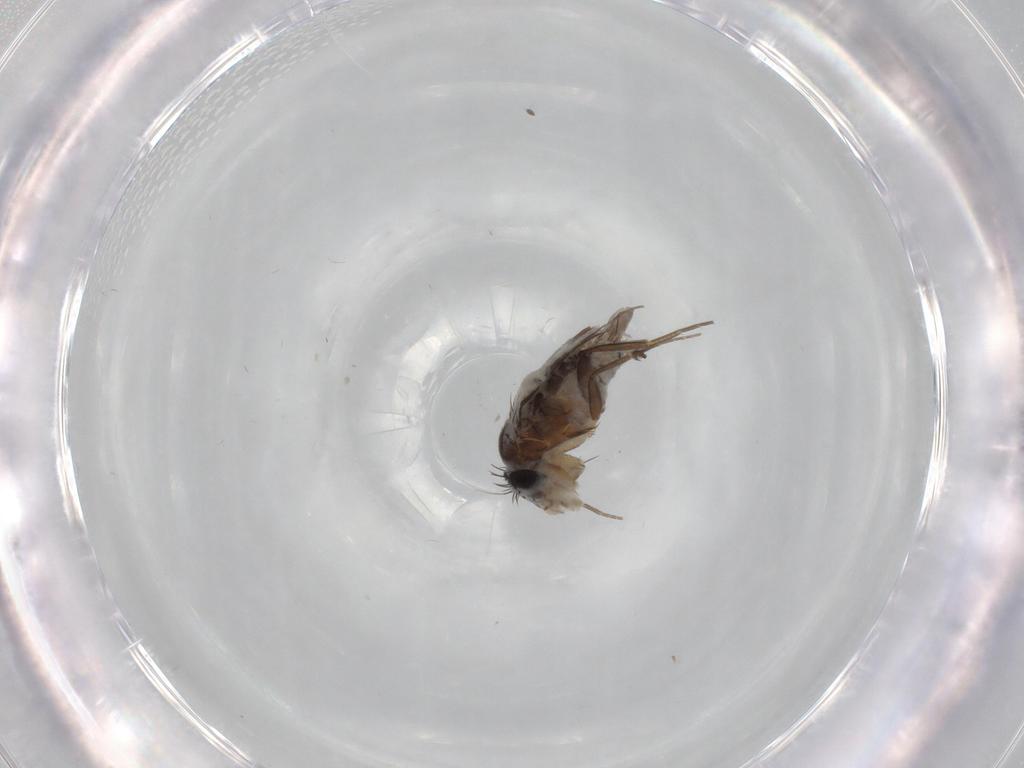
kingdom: Animalia
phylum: Arthropoda
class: Insecta
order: Diptera
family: Phoridae
